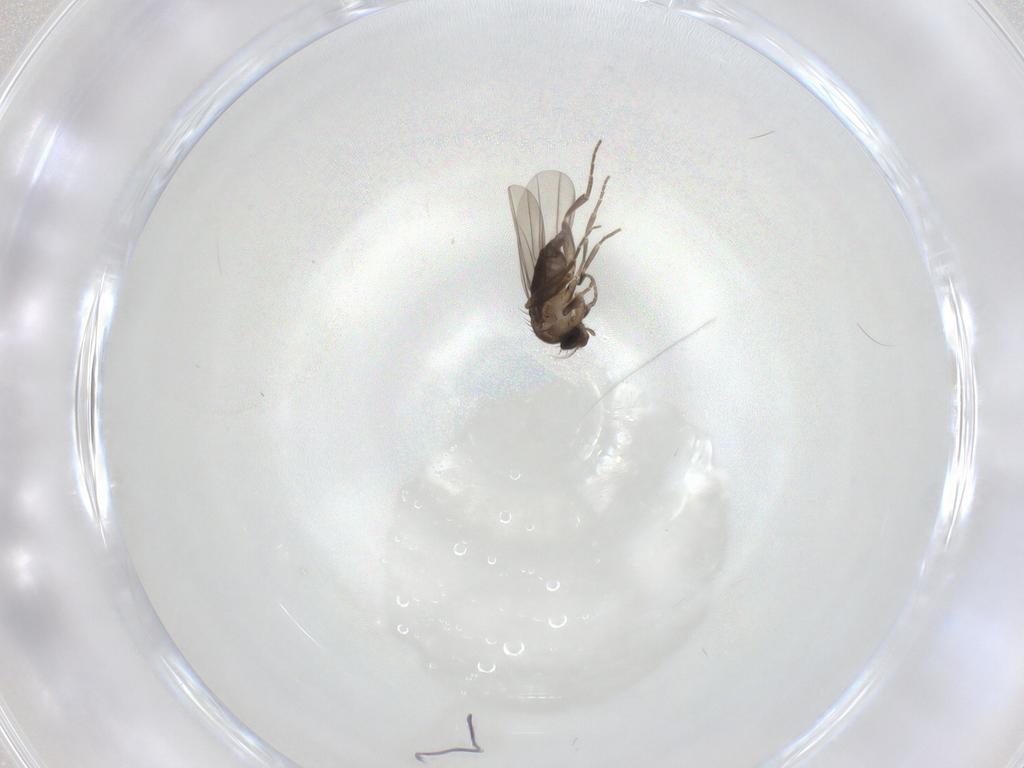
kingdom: Animalia
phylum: Arthropoda
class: Insecta
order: Diptera
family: Phoridae
